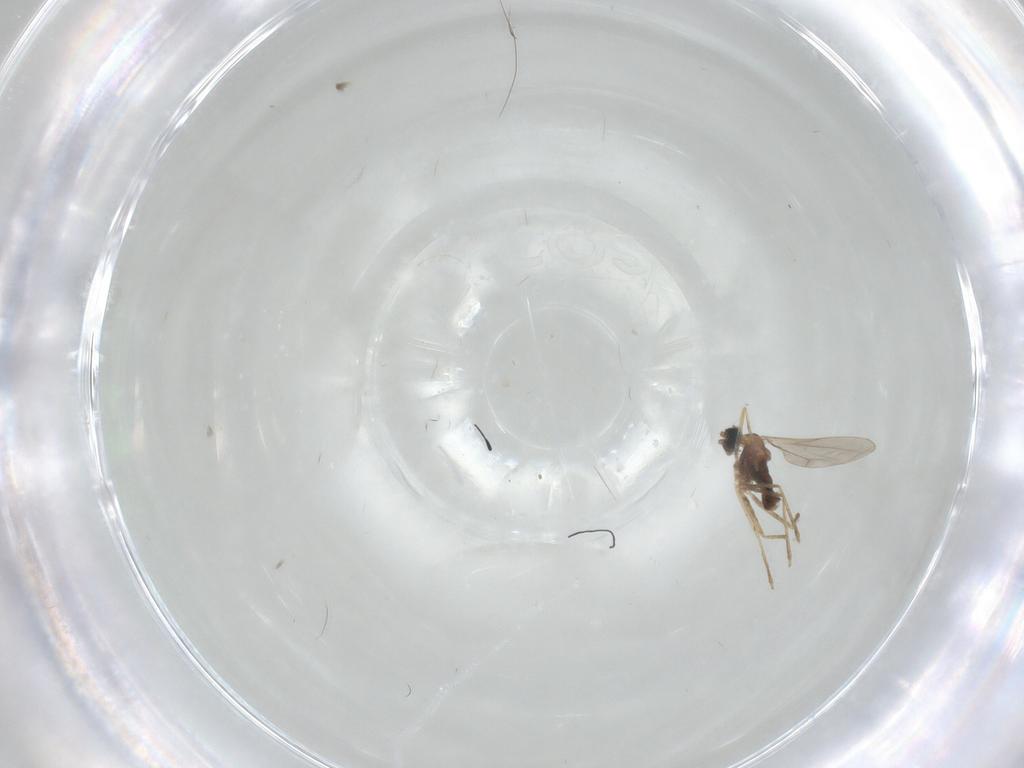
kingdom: Animalia
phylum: Arthropoda
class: Insecta
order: Diptera
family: Cecidomyiidae
